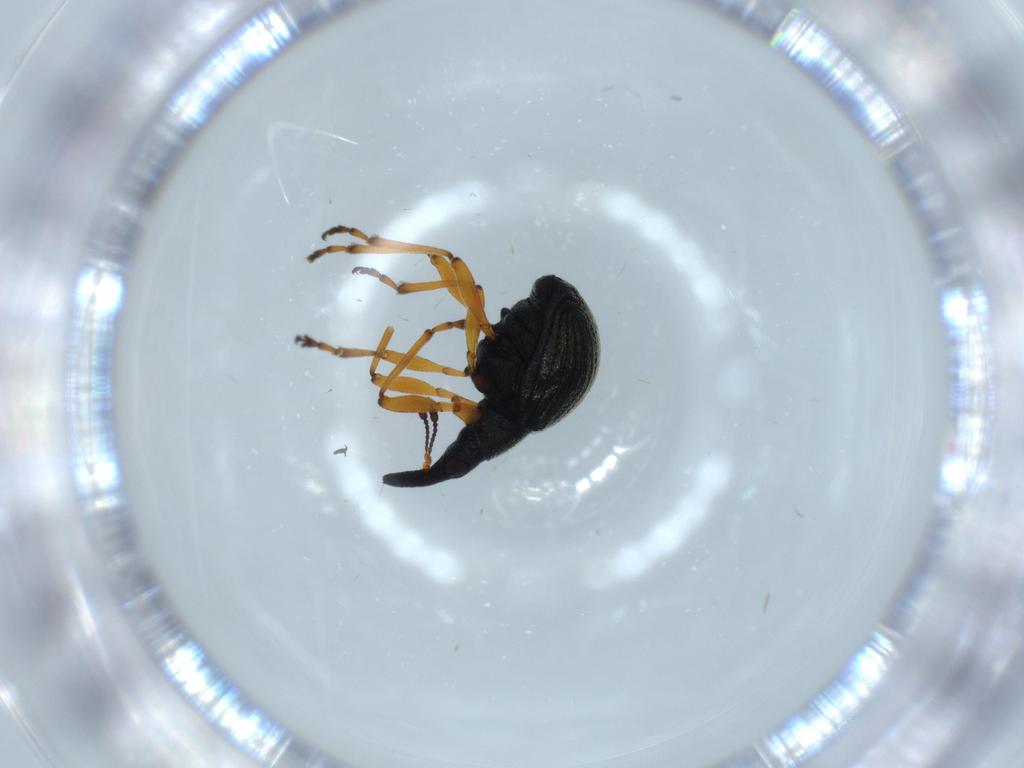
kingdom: Animalia
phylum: Arthropoda
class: Insecta
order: Coleoptera
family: Brentidae
